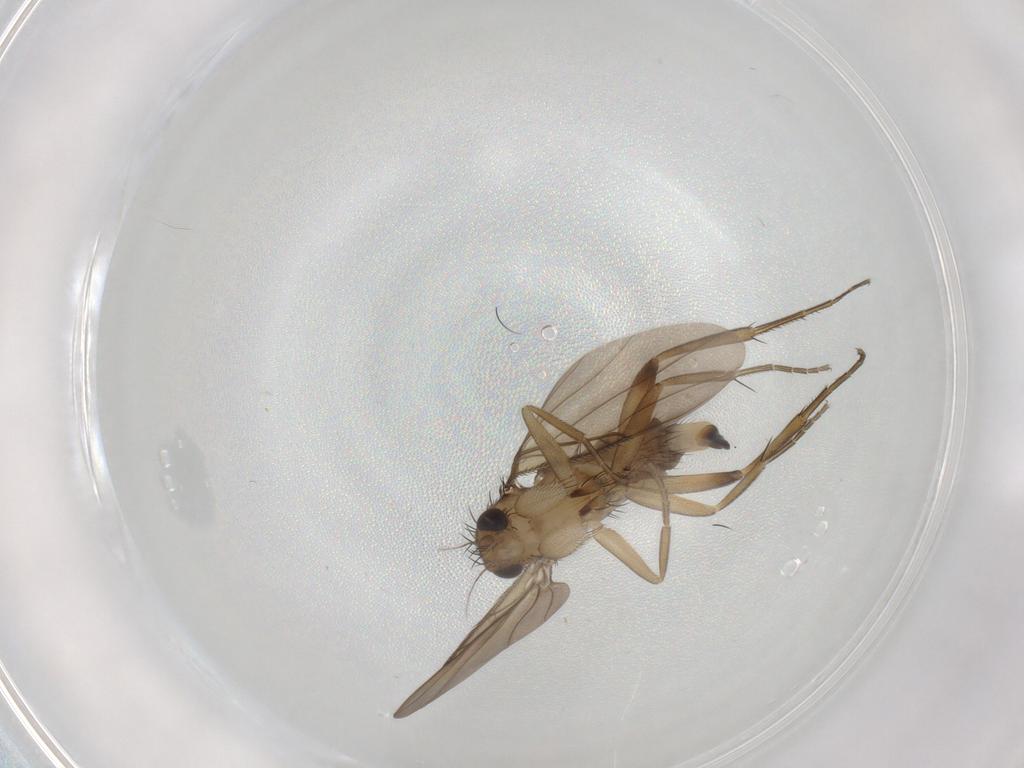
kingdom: Animalia
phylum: Arthropoda
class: Insecta
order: Diptera
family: Phoridae
